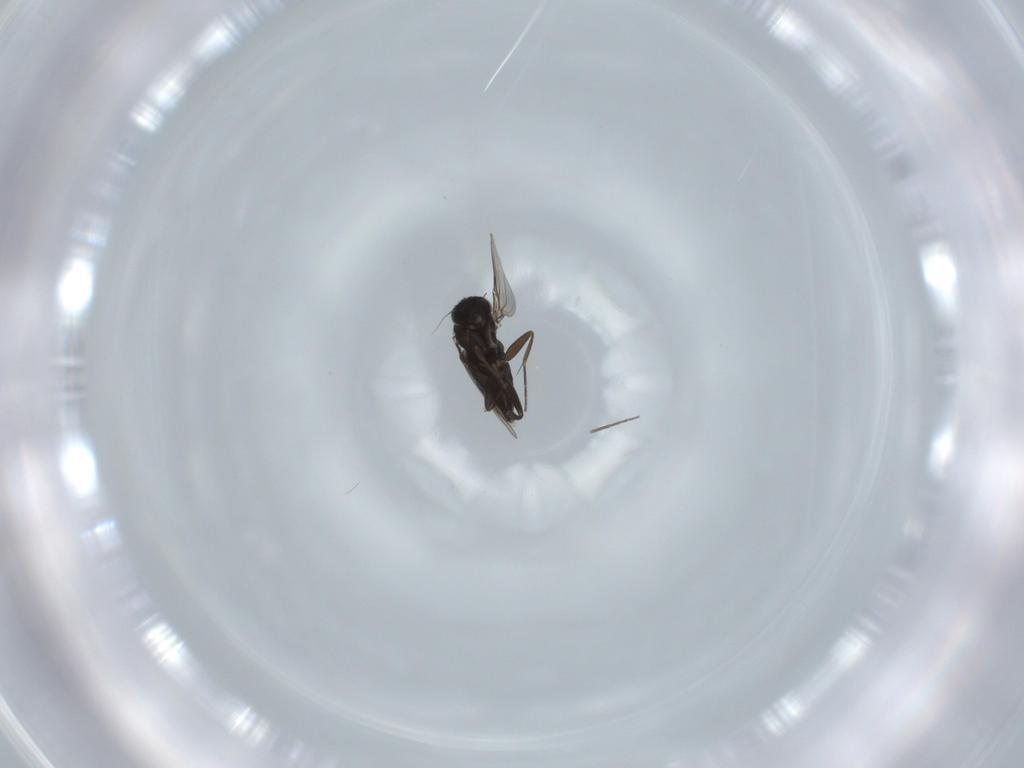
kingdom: Animalia
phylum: Arthropoda
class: Insecta
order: Diptera
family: Phoridae
